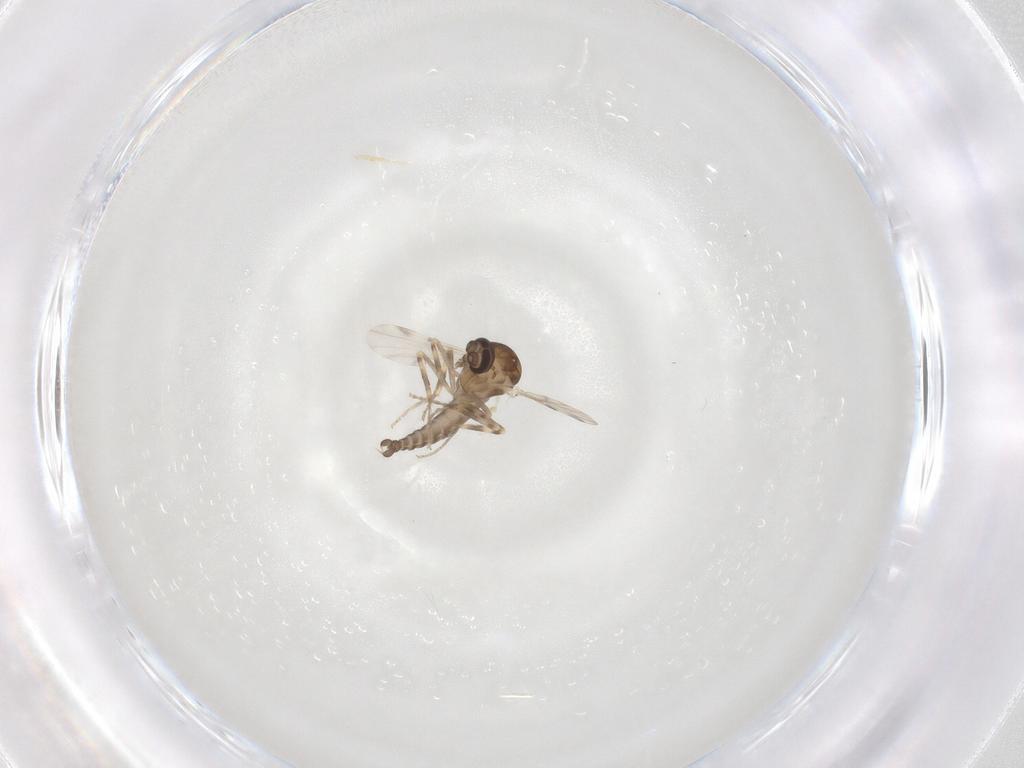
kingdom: Animalia
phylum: Arthropoda
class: Insecta
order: Diptera
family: Ceratopogonidae
